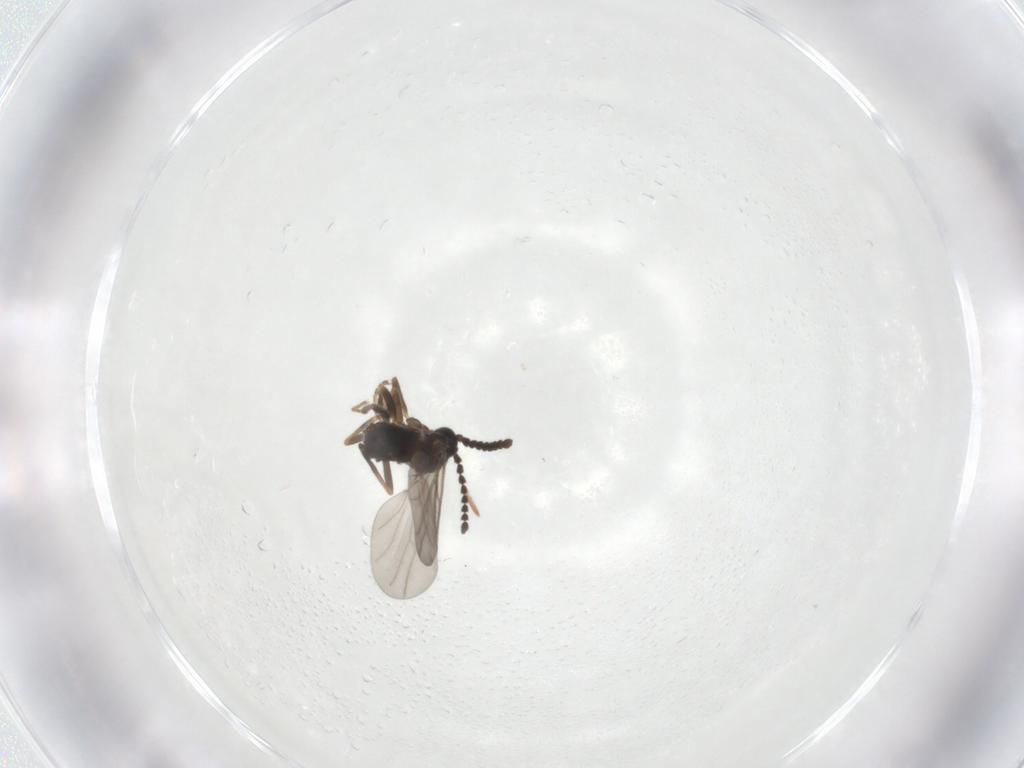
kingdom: Animalia
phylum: Arthropoda
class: Insecta
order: Diptera
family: Scatopsidae
